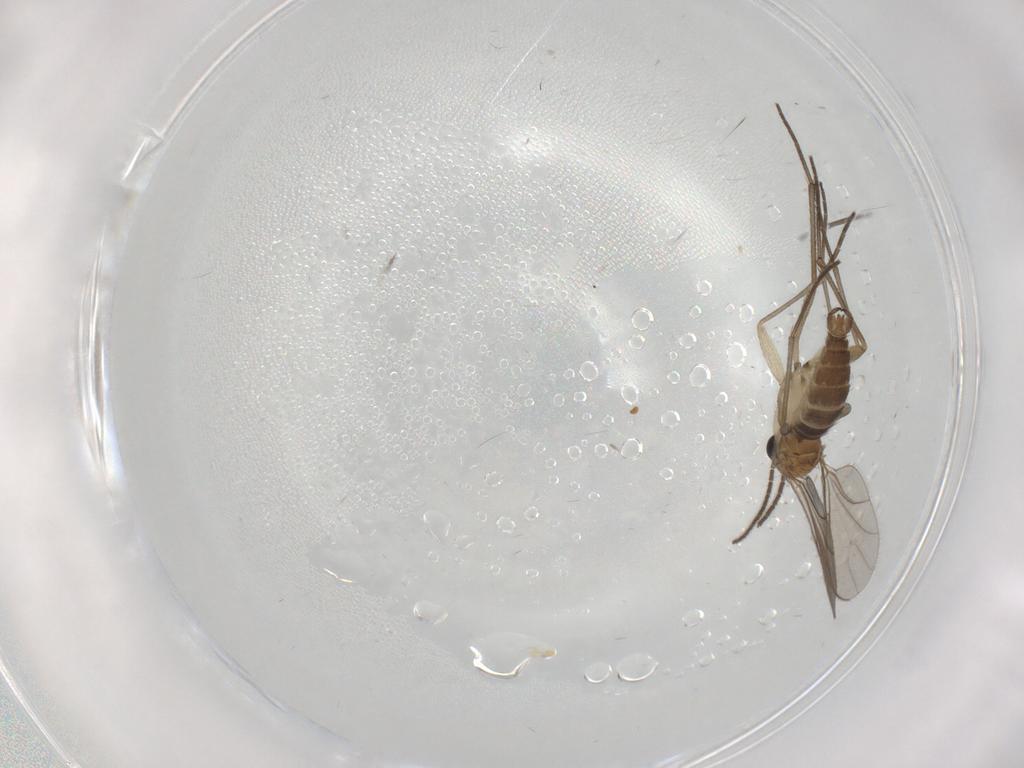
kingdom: Animalia
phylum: Arthropoda
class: Insecta
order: Diptera
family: Sciaridae
